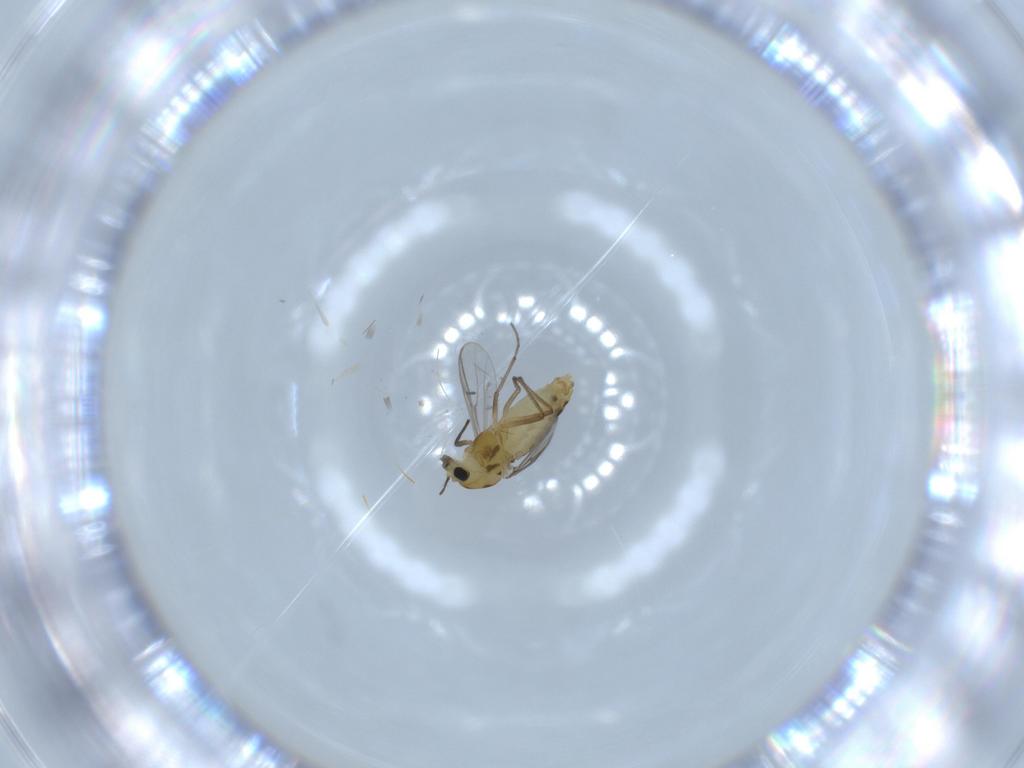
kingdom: Animalia
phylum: Arthropoda
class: Insecta
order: Diptera
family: Chironomidae
